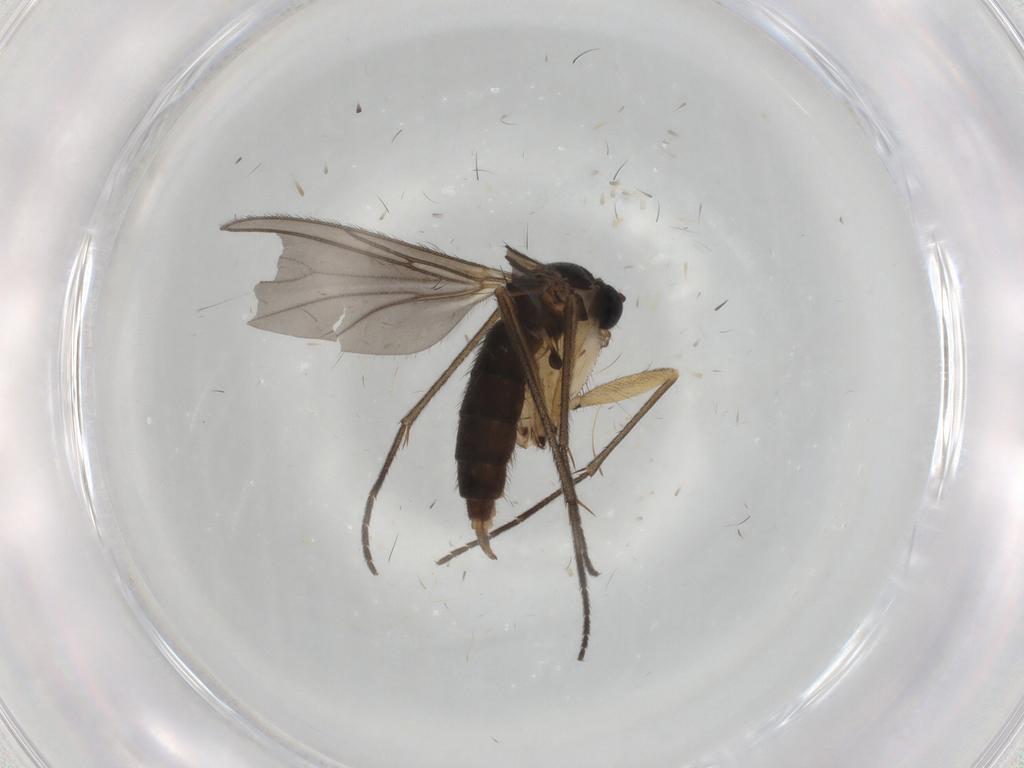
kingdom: Animalia
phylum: Arthropoda
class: Insecta
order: Diptera
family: Sciaridae
